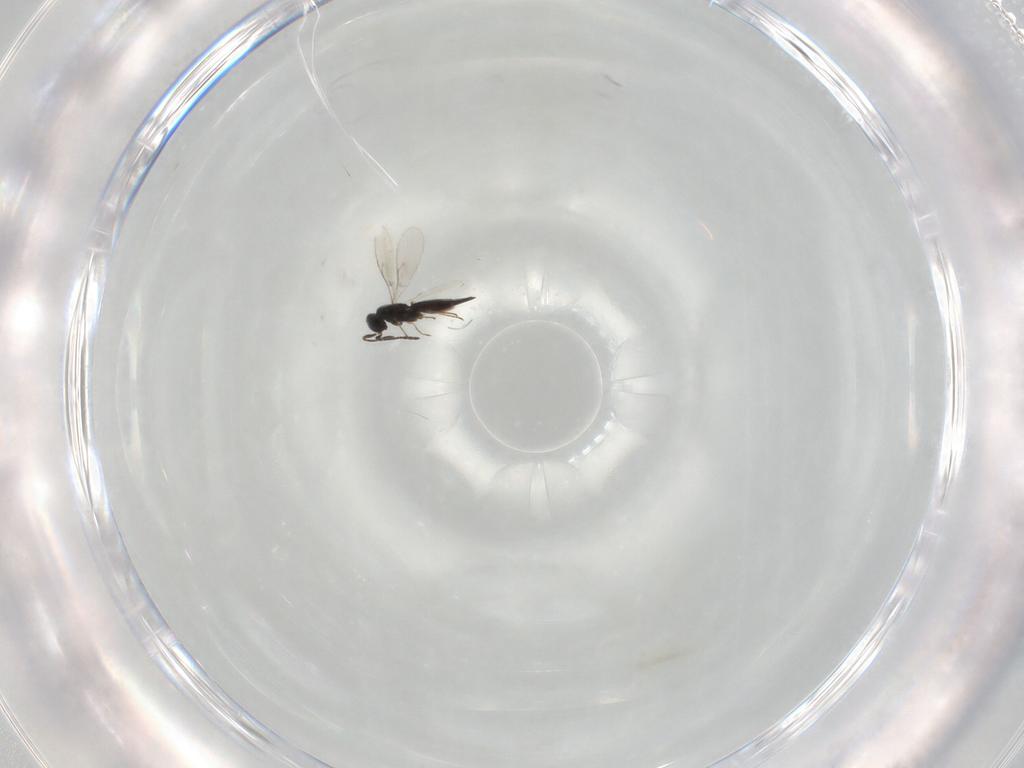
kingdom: Animalia
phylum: Arthropoda
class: Insecta
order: Hymenoptera
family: Scelionidae
